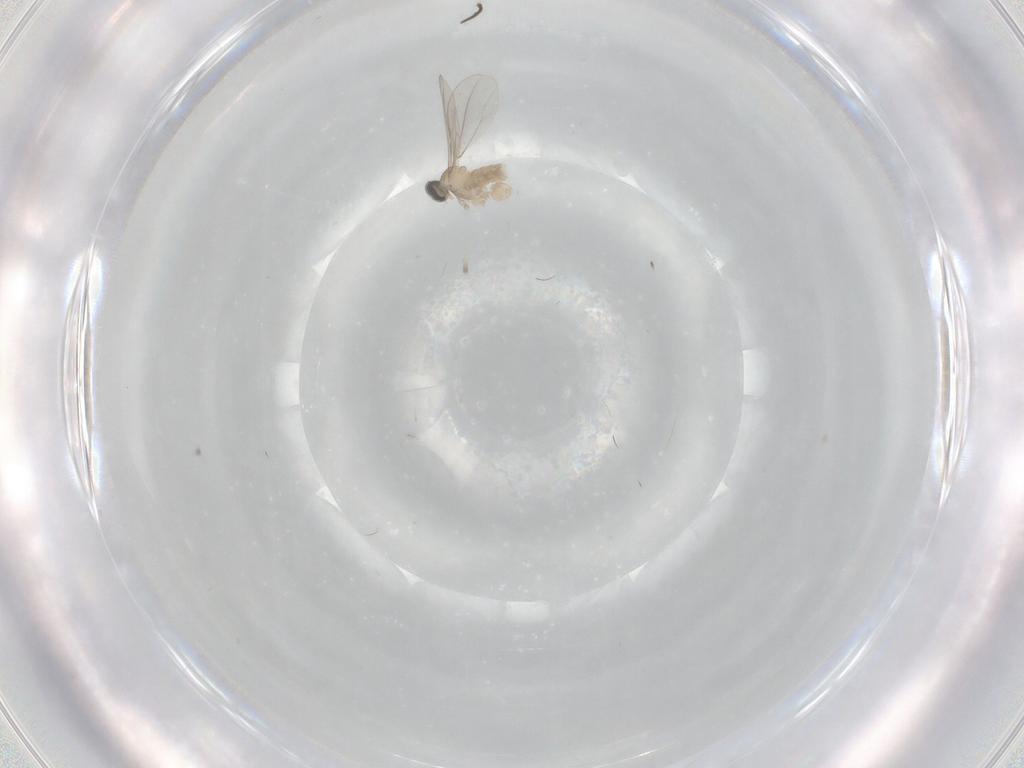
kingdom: Animalia
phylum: Arthropoda
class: Insecta
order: Diptera
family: Cecidomyiidae
